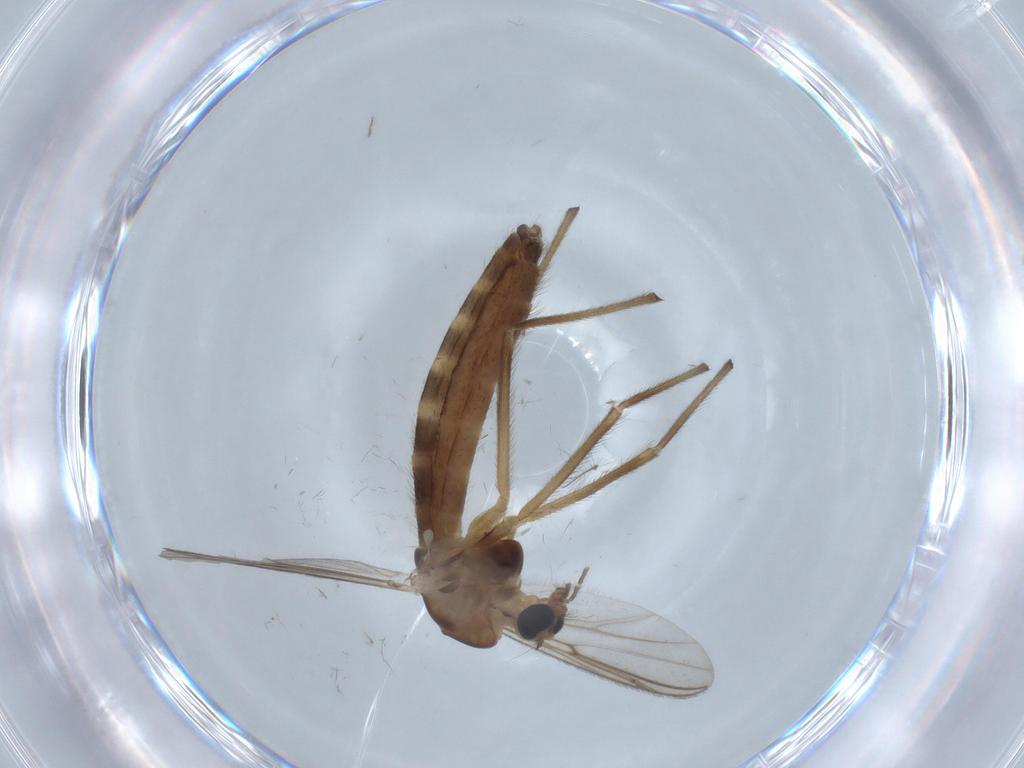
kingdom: Animalia
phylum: Arthropoda
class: Insecta
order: Diptera
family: Chironomidae
